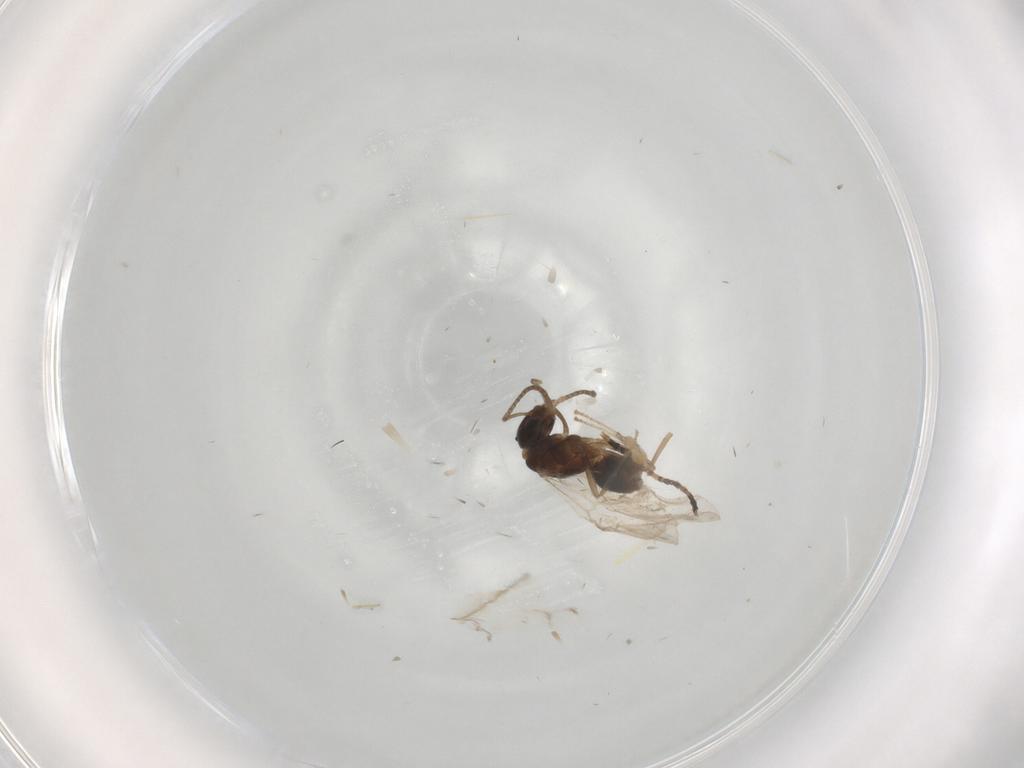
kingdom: Animalia
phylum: Arthropoda
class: Insecta
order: Hymenoptera
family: Formicidae
